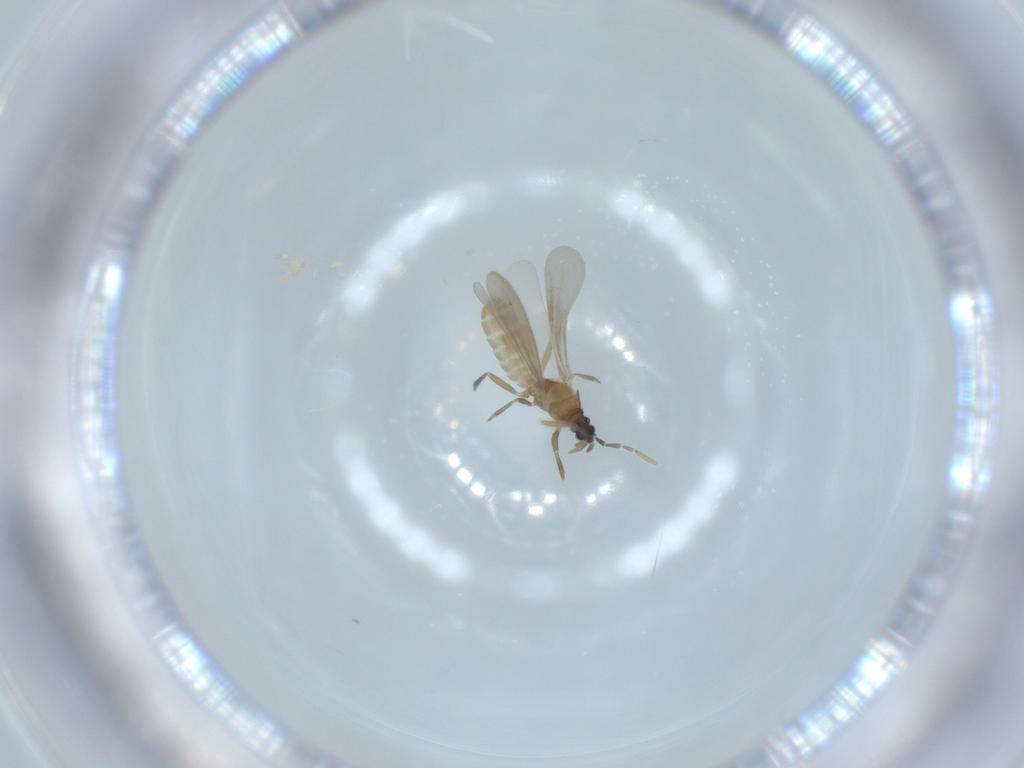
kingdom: Animalia
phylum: Arthropoda
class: Insecta
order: Hemiptera
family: Enicocephalidae
